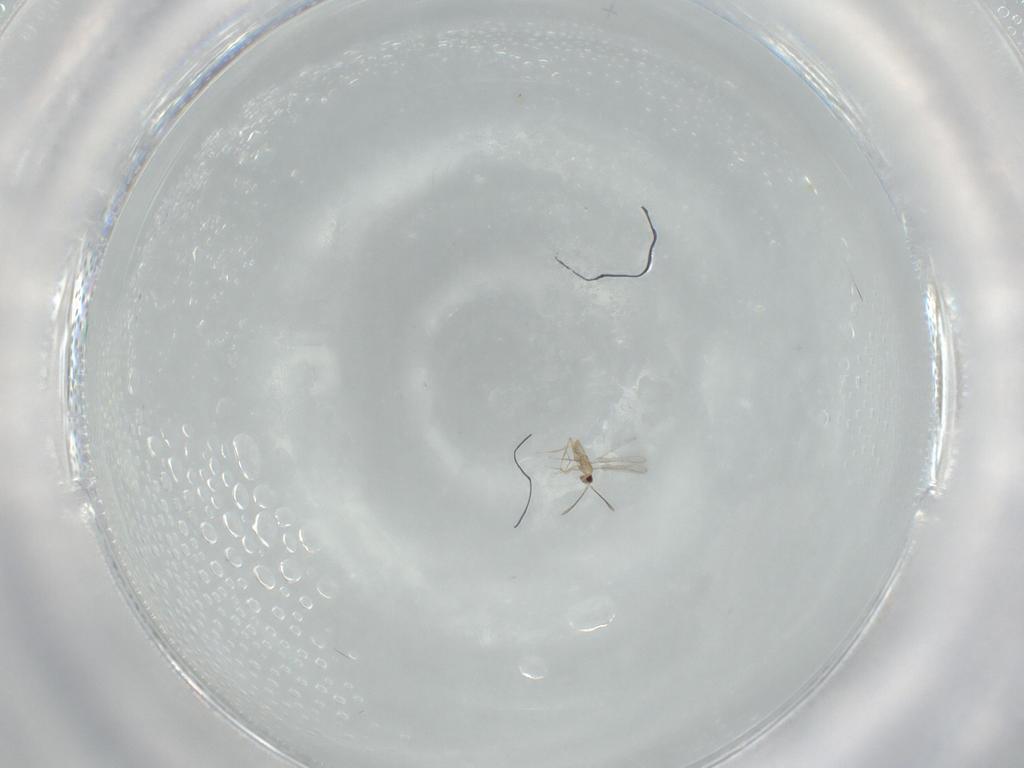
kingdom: Animalia
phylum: Arthropoda
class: Insecta
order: Hymenoptera
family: Mymaridae
